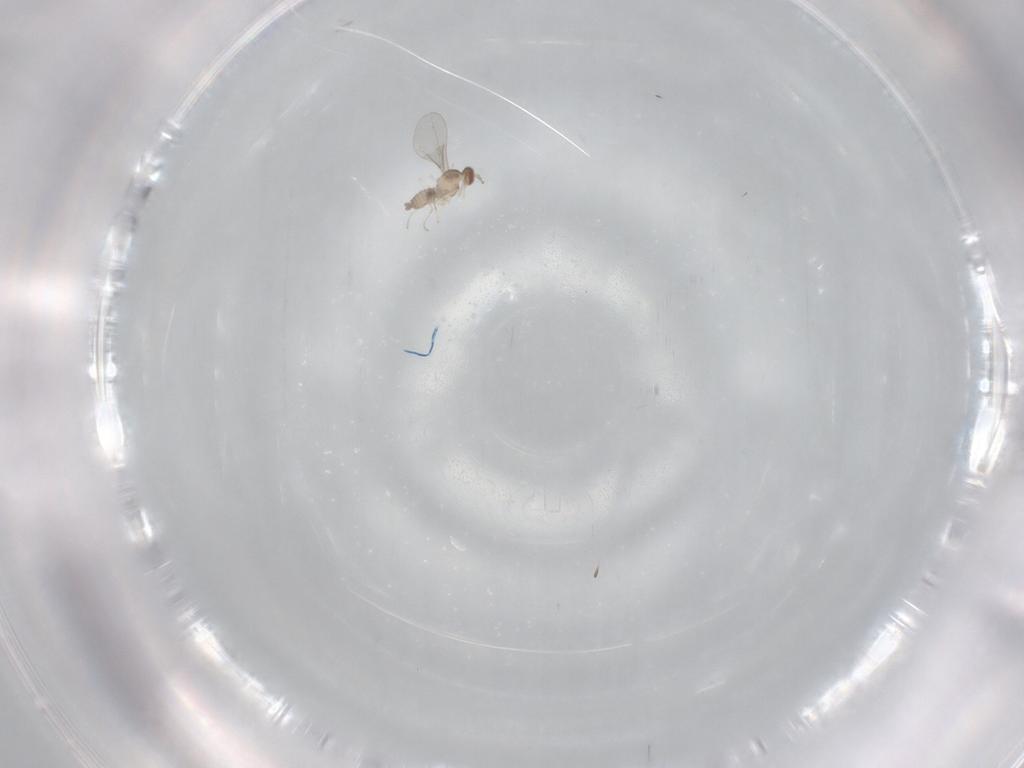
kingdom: Animalia
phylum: Arthropoda
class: Insecta
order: Diptera
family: Cecidomyiidae
